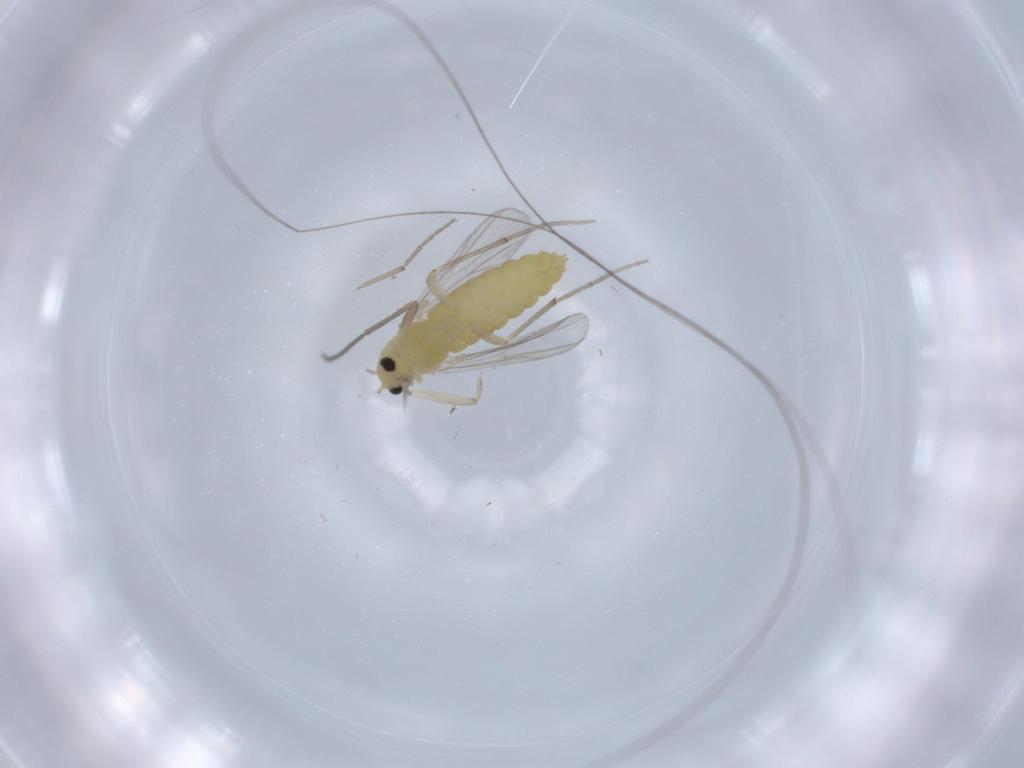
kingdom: Animalia
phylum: Arthropoda
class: Insecta
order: Diptera
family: Chironomidae
